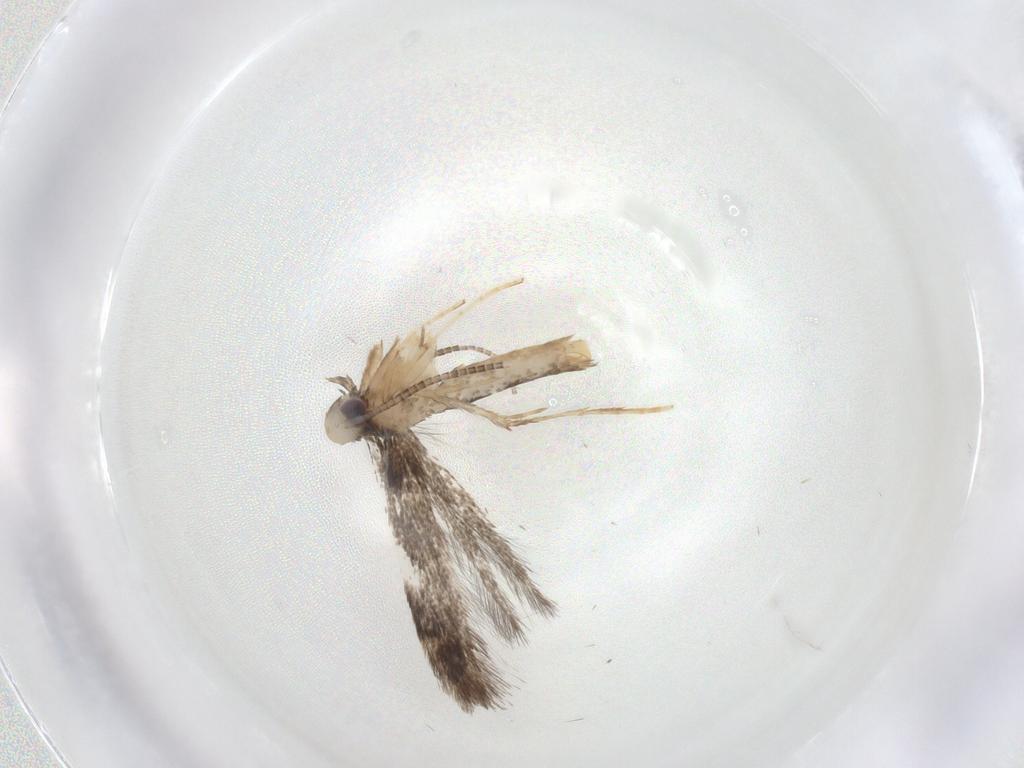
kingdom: Animalia
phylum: Arthropoda
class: Insecta
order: Lepidoptera
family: Gracillariidae
